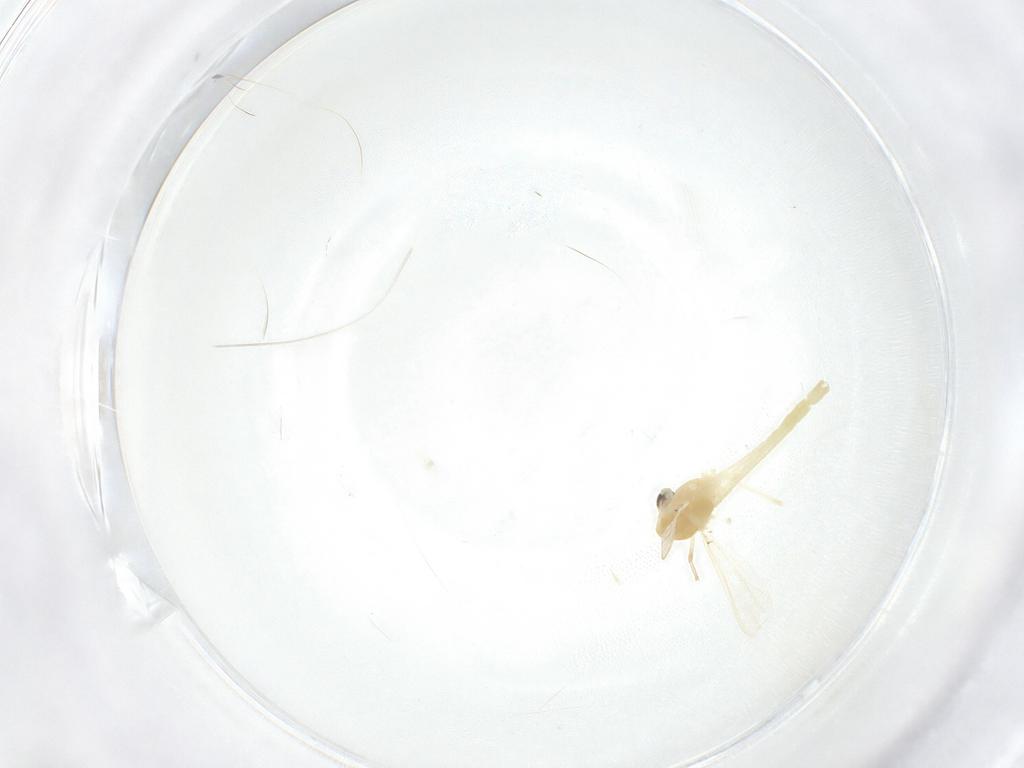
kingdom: Animalia
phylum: Arthropoda
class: Insecta
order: Diptera
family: Chironomidae
